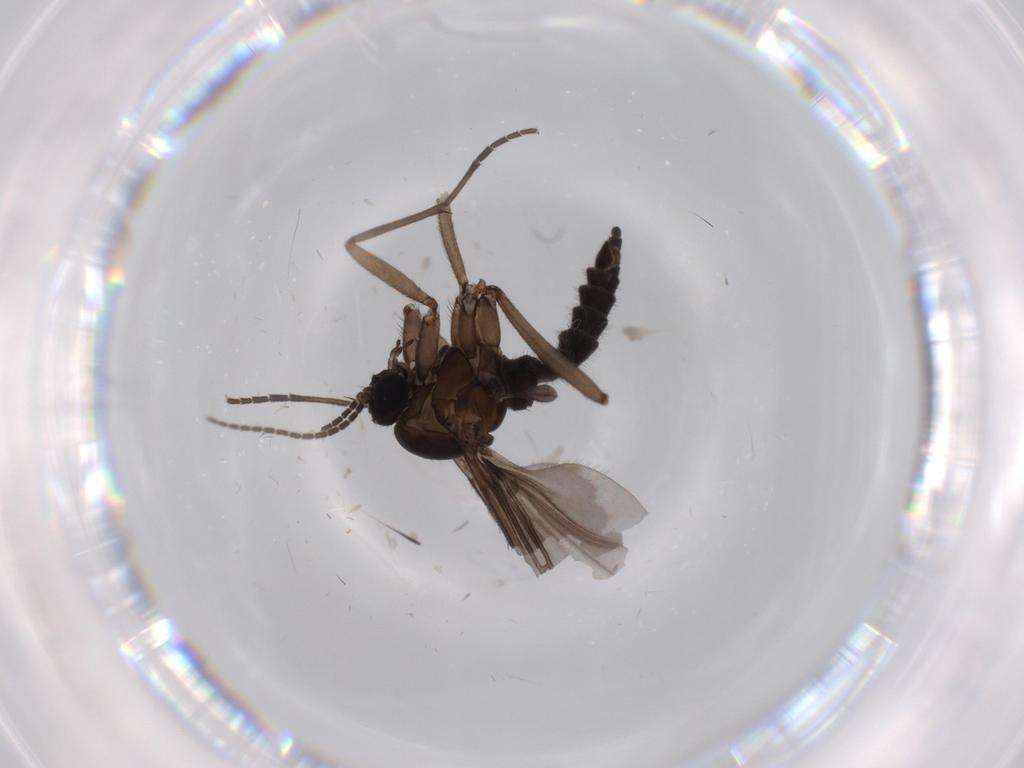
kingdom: Animalia
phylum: Arthropoda
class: Insecta
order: Diptera
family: Sciaridae
